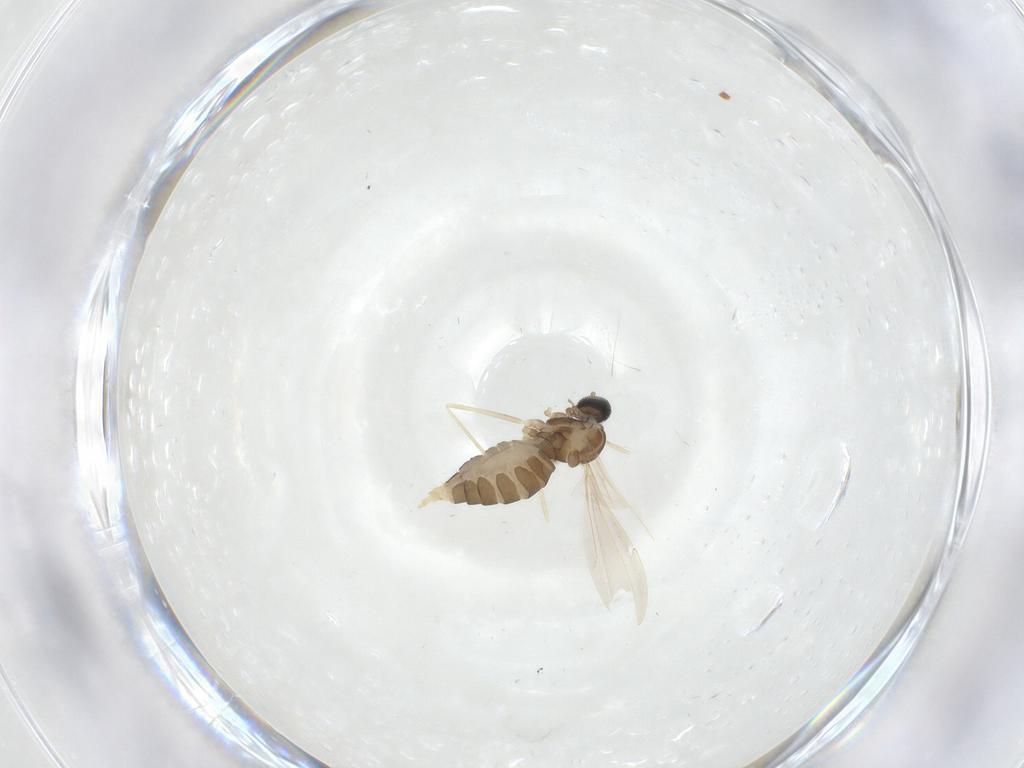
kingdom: Animalia
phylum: Arthropoda
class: Insecta
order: Diptera
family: Cecidomyiidae
